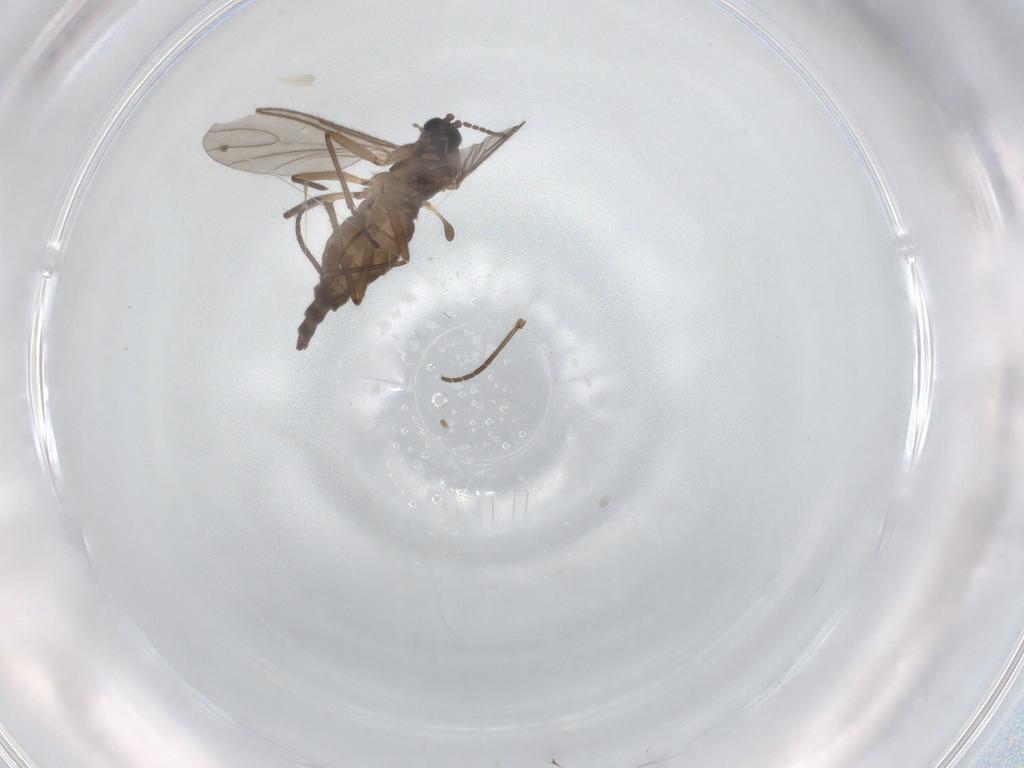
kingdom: Animalia
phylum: Arthropoda
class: Insecta
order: Diptera
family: Sciaridae
